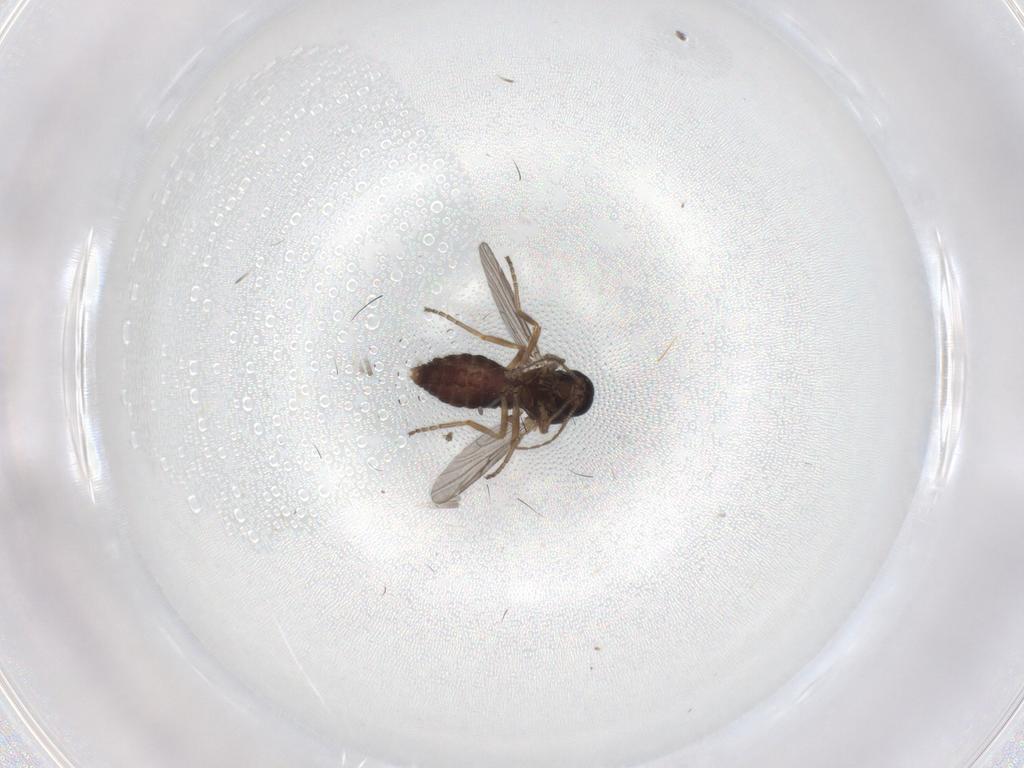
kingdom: Animalia
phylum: Arthropoda
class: Insecta
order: Diptera
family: Ceratopogonidae
